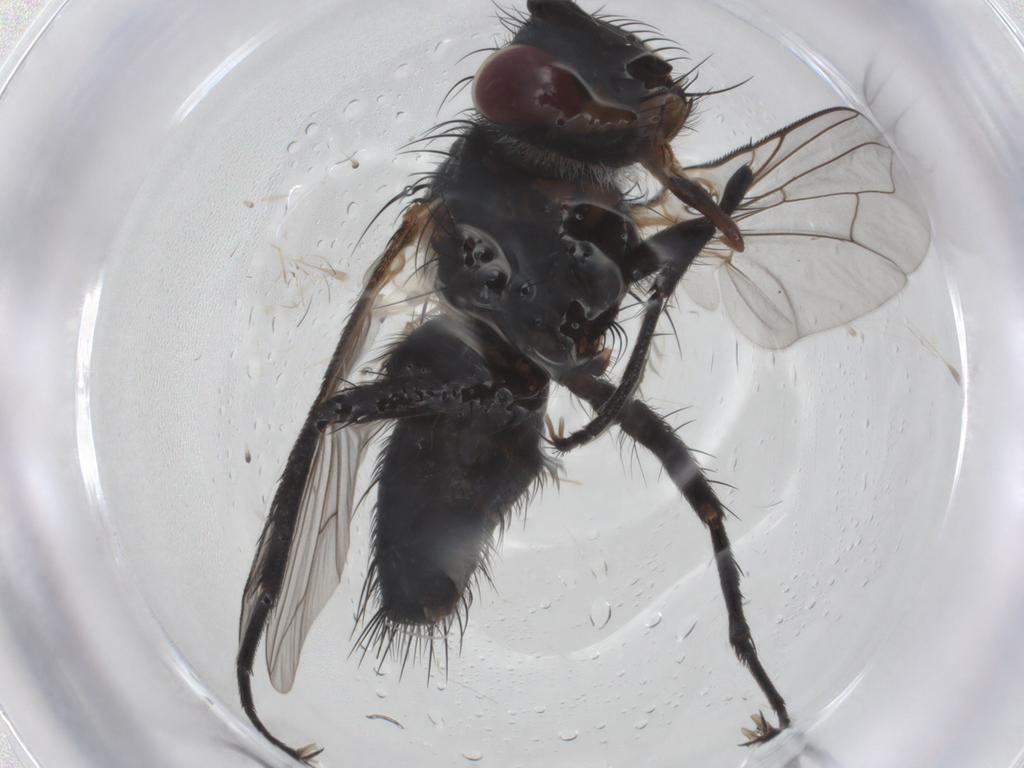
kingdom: Animalia
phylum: Arthropoda
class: Insecta
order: Diptera
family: Tachinidae
